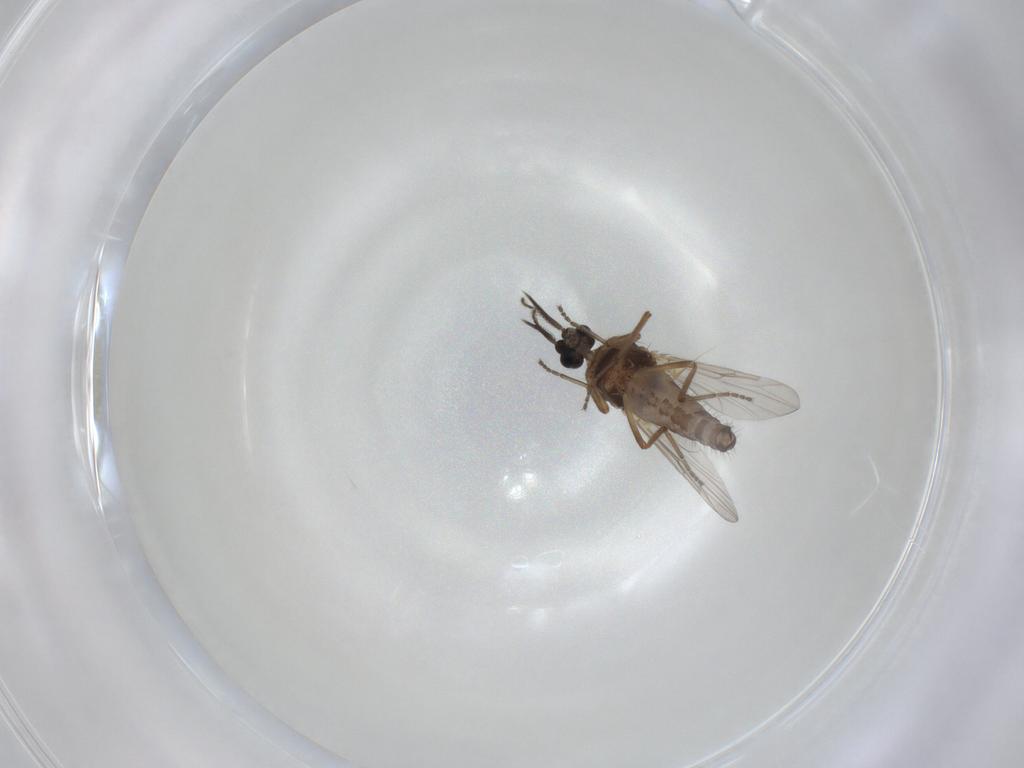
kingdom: Animalia
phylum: Arthropoda
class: Insecta
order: Diptera
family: Ceratopogonidae
